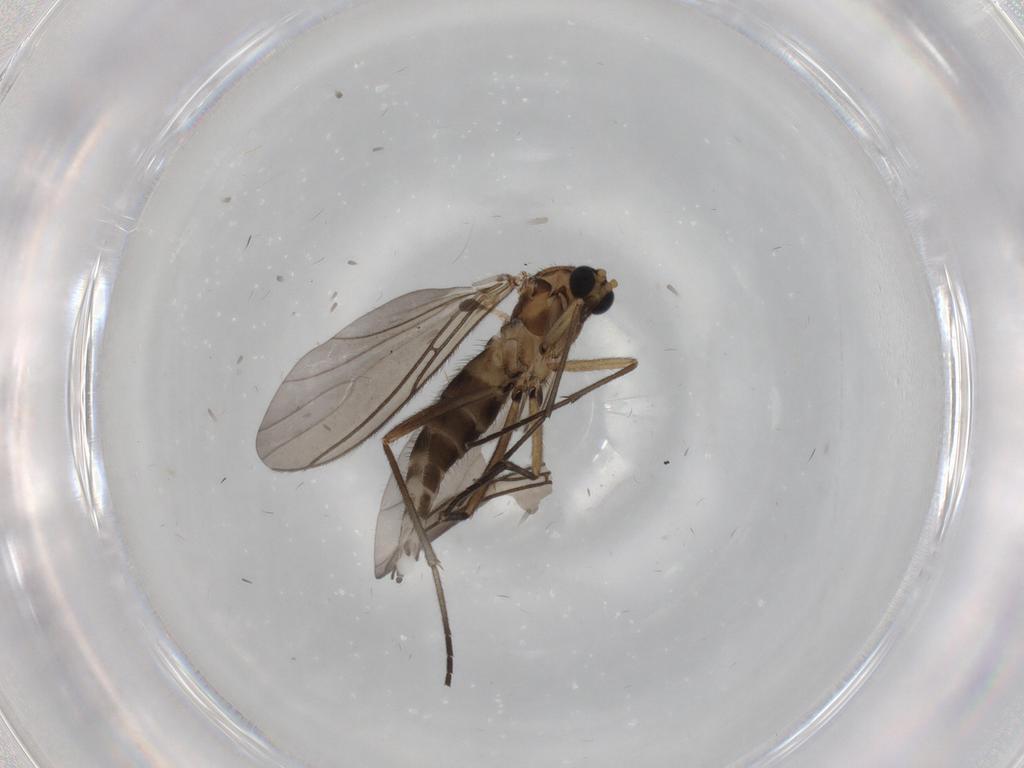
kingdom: Animalia
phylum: Arthropoda
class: Insecta
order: Diptera
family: Sciaridae
